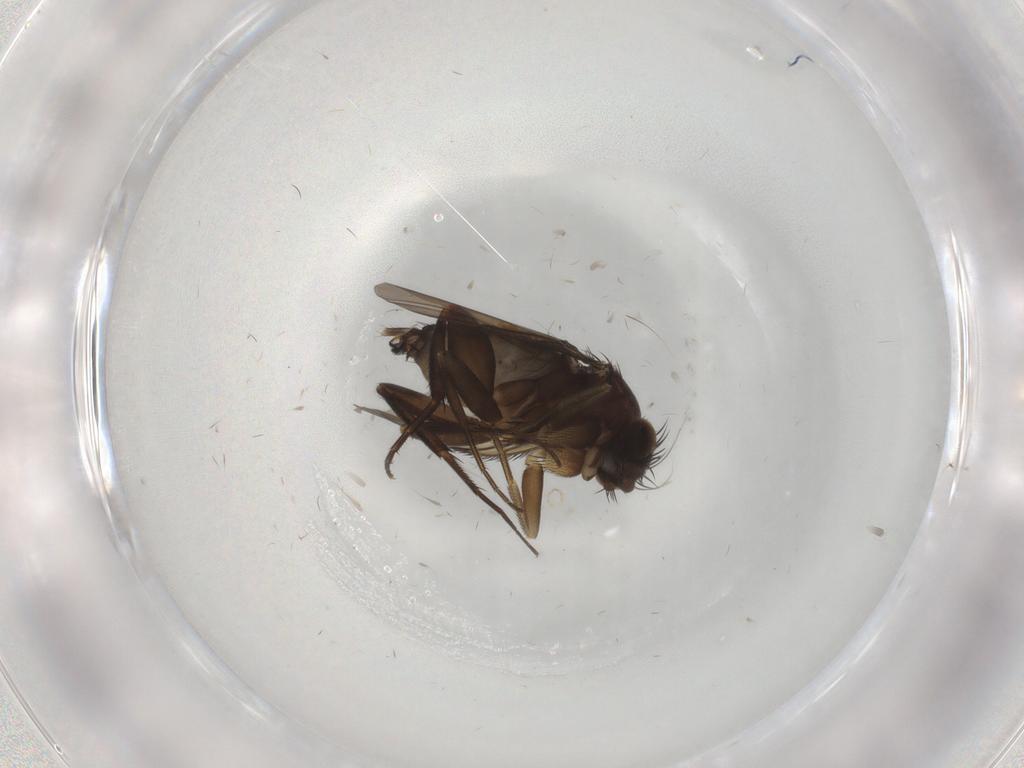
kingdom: Animalia
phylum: Arthropoda
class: Insecta
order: Diptera
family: Phoridae
